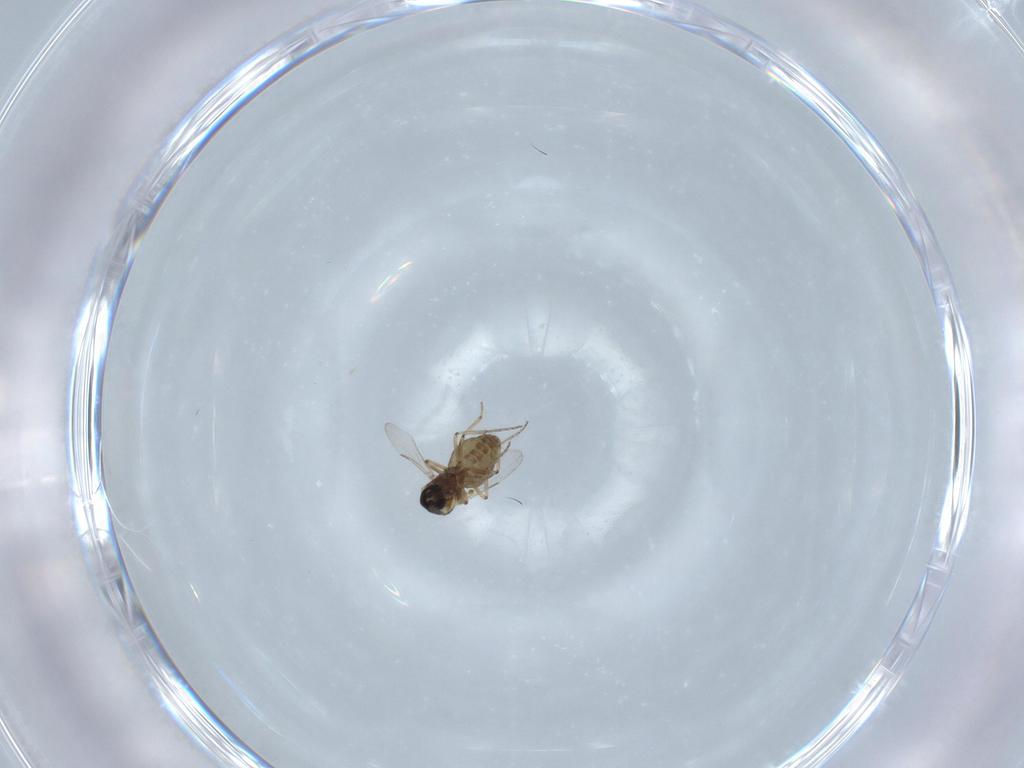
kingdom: Animalia
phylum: Arthropoda
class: Insecta
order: Diptera
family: Ceratopogonidae
